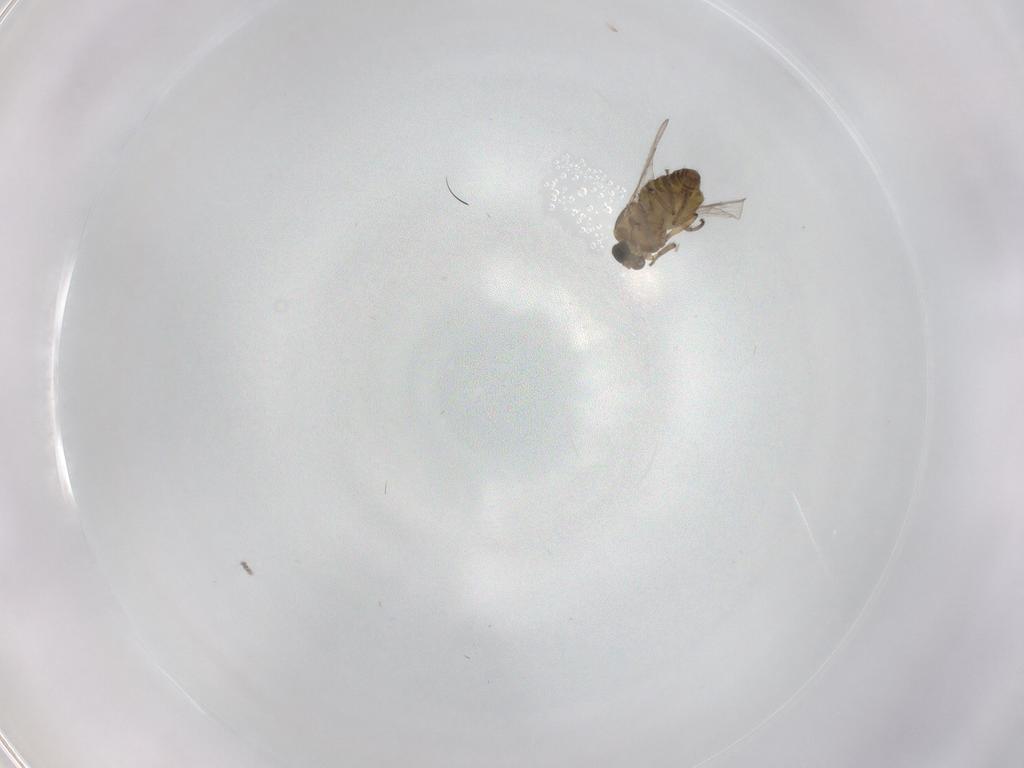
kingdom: Animalia
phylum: Arthropoda
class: Insecta
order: Diptera
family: Ceratopogonidae
